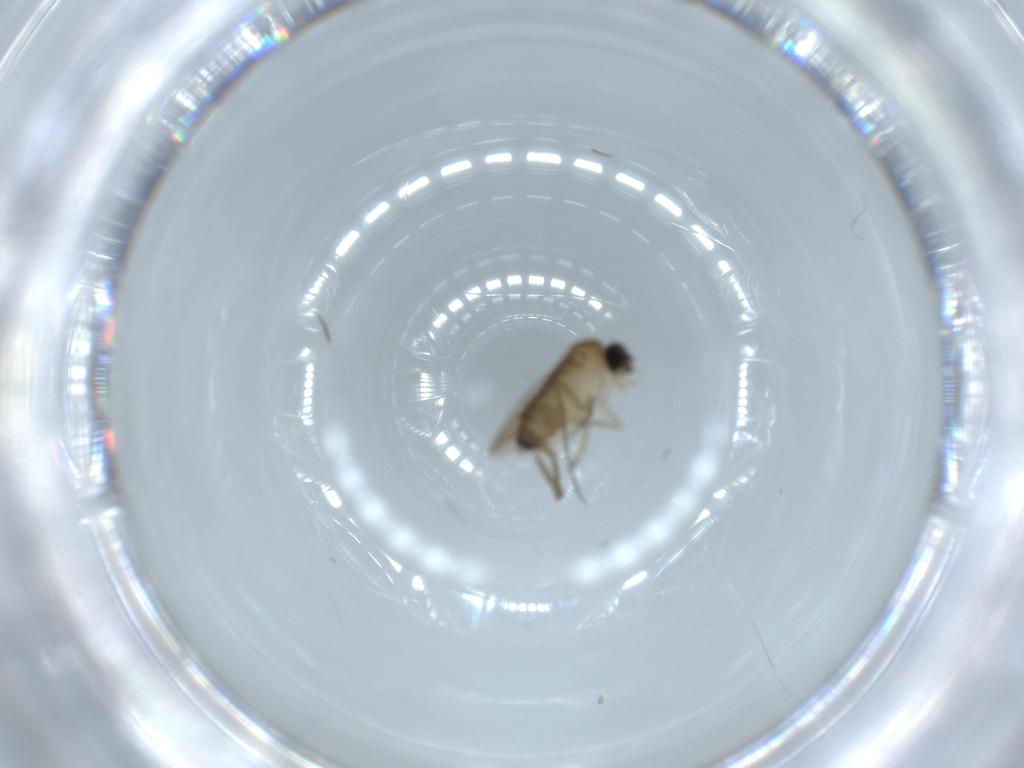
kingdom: Animalia
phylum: Arthropoda
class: Insecta
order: Diptera
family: Phoridae
